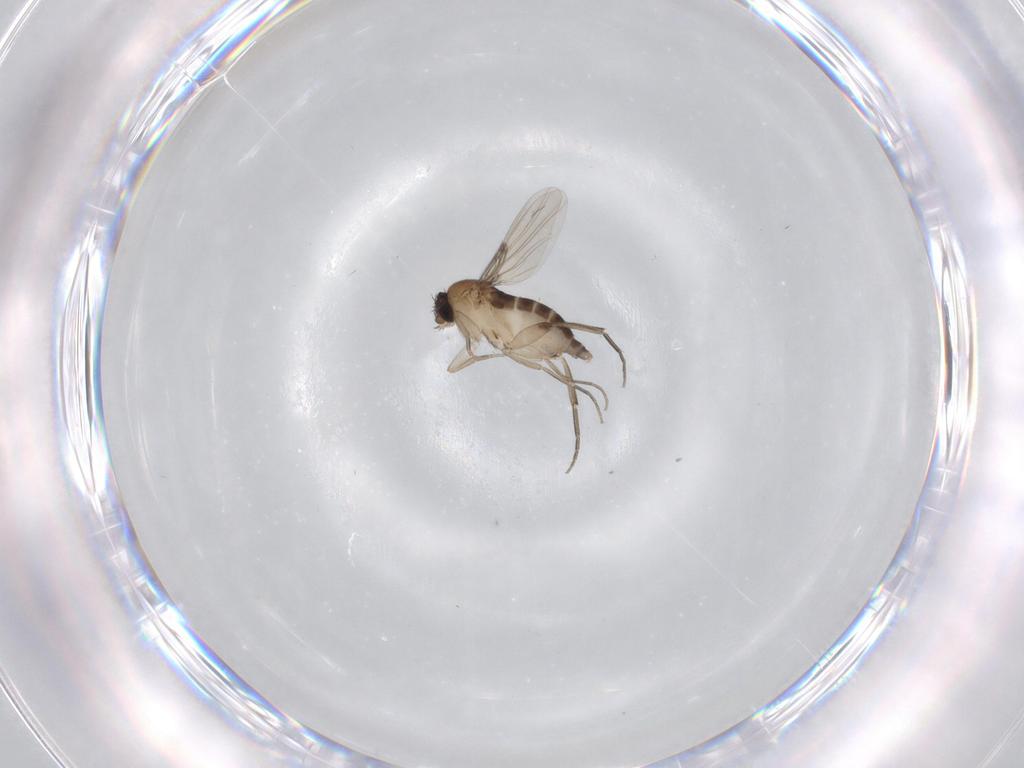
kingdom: Animalia
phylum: Arthropoda
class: Insecta
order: Diptera
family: Phoridae
